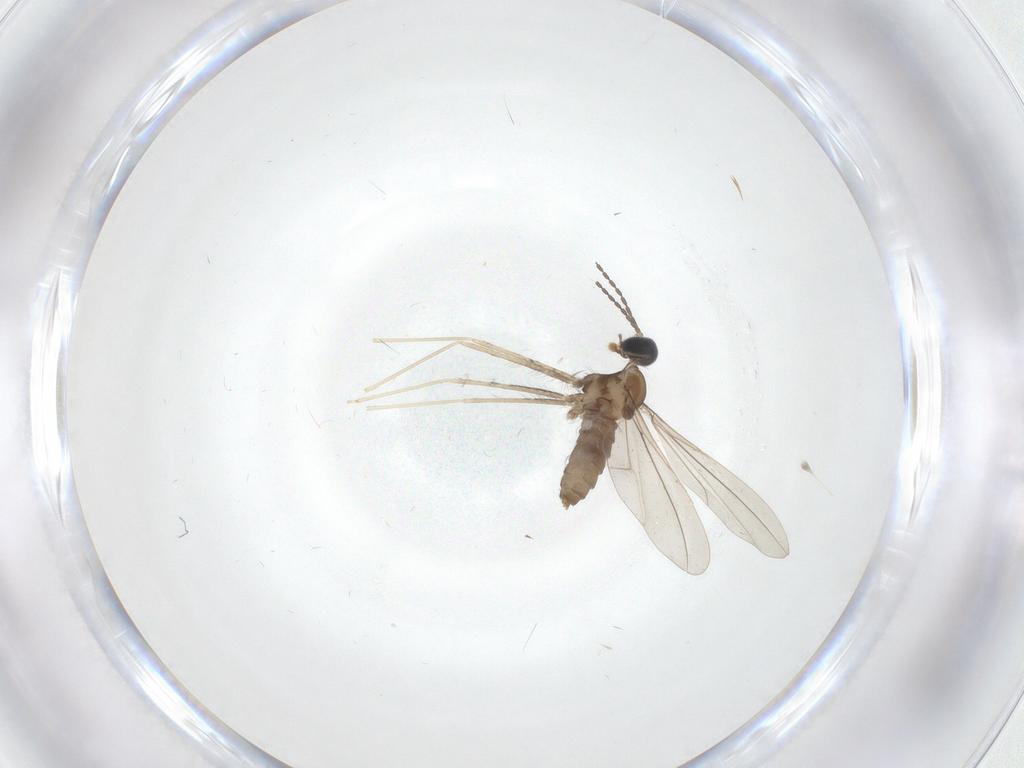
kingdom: Animalia
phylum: Arthropoda
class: Insecta
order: Diptera
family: Cecidomyiidae
